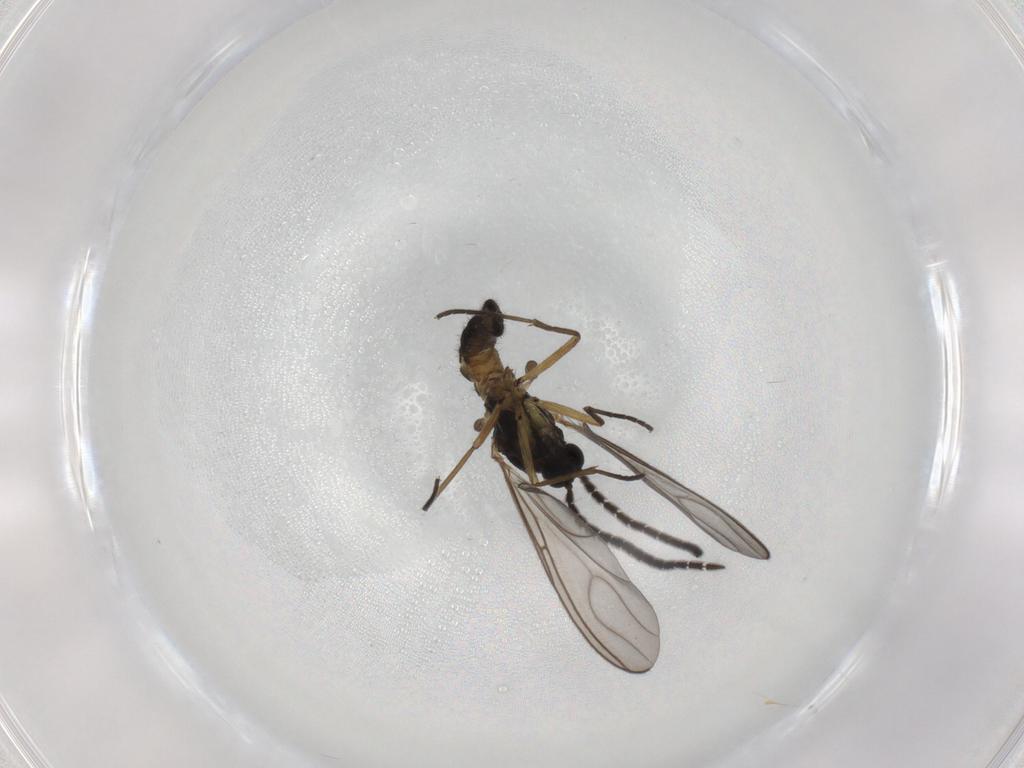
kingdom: Animalia
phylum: Arthropoda
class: Insecta
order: Diptera
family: Sciaridae
